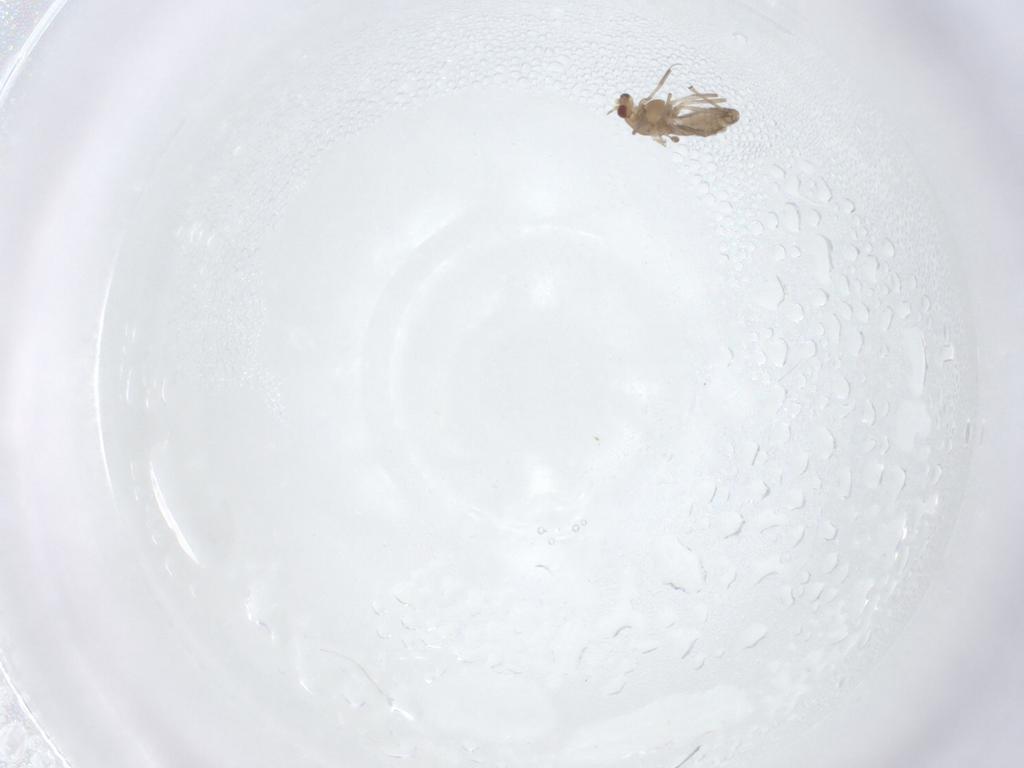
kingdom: Animalia
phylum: Arthropoda
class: Insecta
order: Diptera
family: Chironomidae
